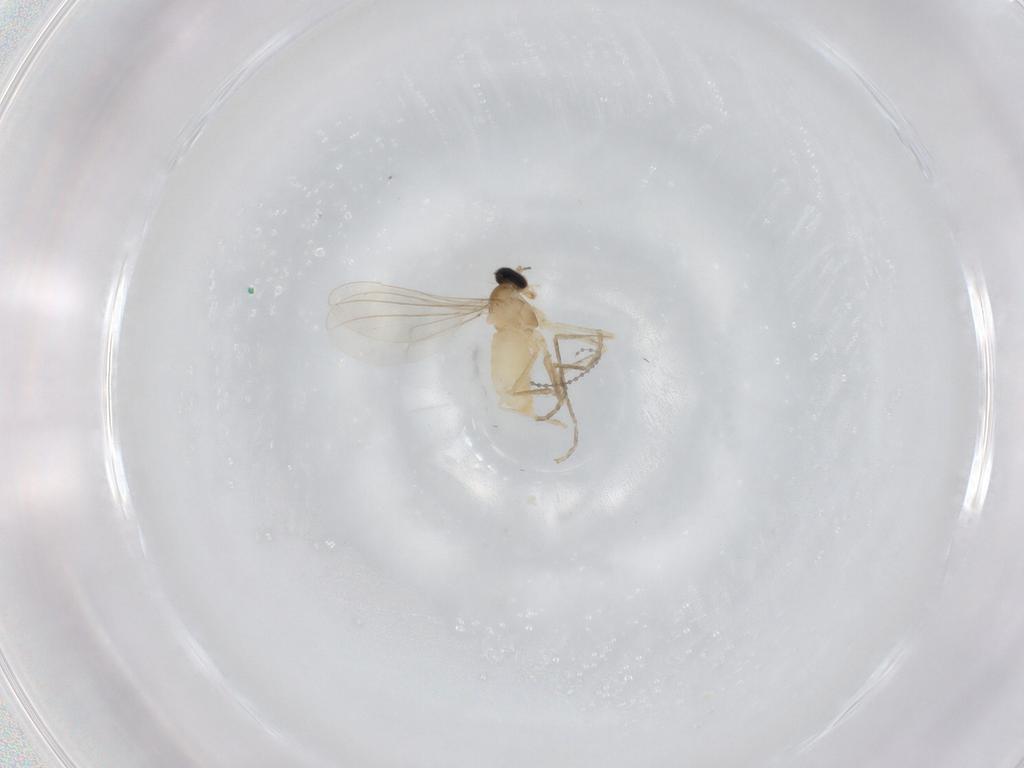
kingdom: Animalia
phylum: Arthropoda
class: Insecta
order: Diptera
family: Cecidomyiidae
